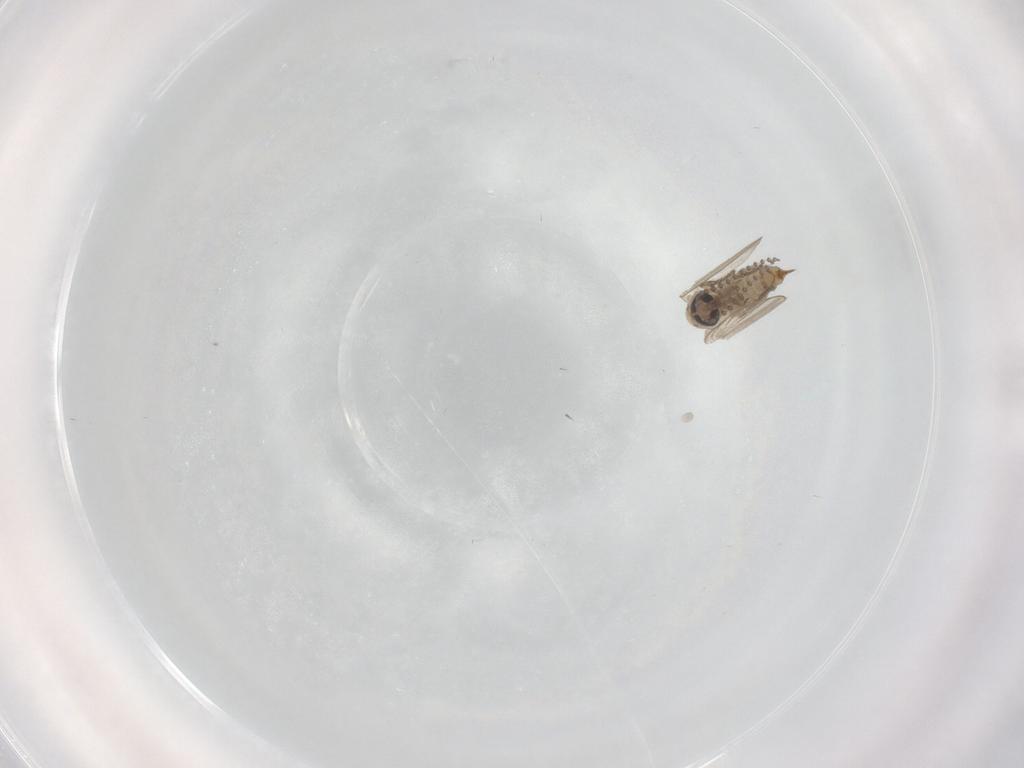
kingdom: Animalia
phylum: Arthropoda
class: Insecta
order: Diptera
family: Psychodidae
